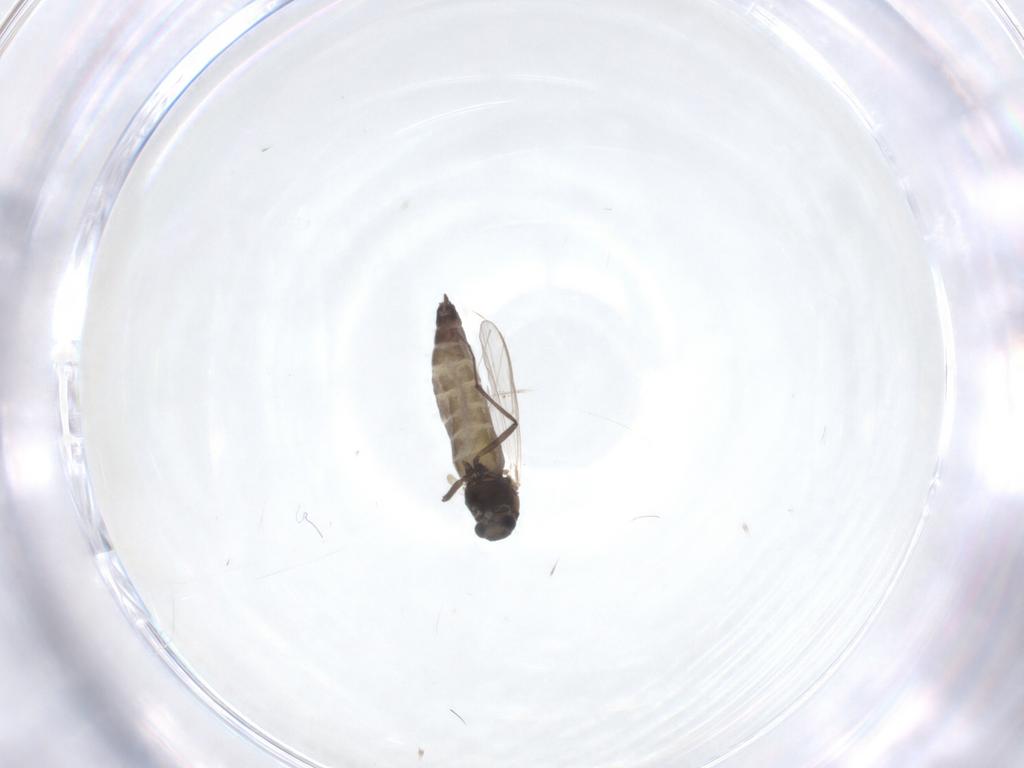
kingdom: Animalia
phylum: Arthropoda
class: Insecta
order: Diptera
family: Chironomidae
